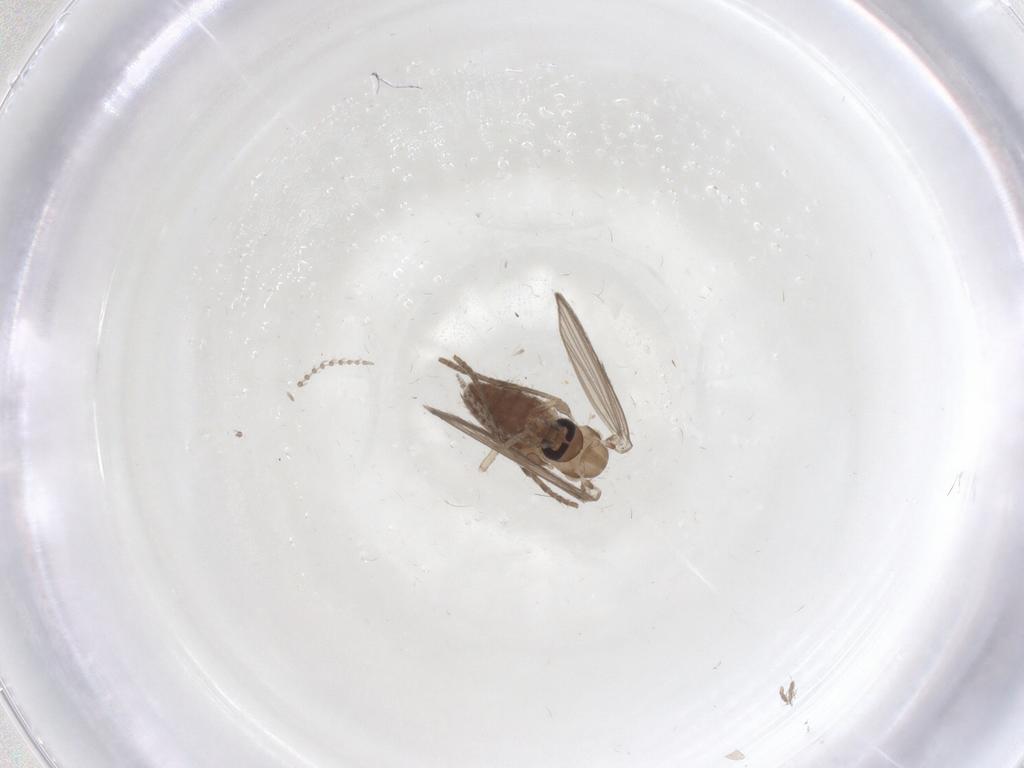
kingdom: Animalia
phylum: Arthropoda
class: Insecta
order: Diptera
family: Psychodidae
